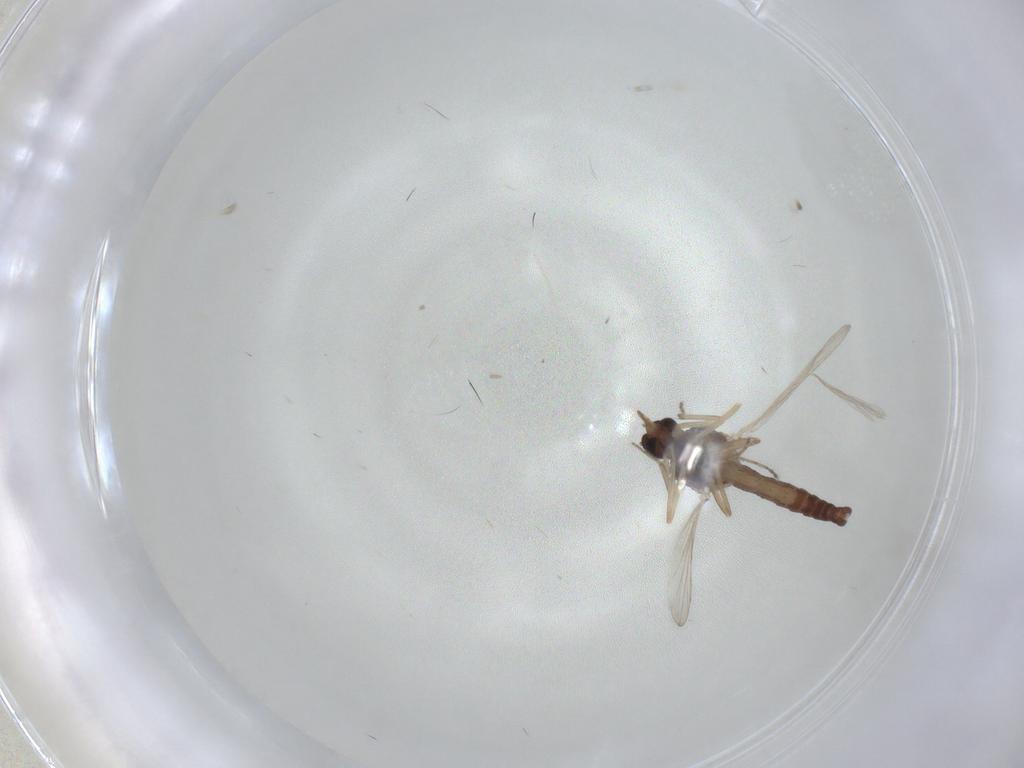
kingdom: Animalia
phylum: Arthropoda
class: Insecta
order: Diptera
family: Ceratopogonidae
